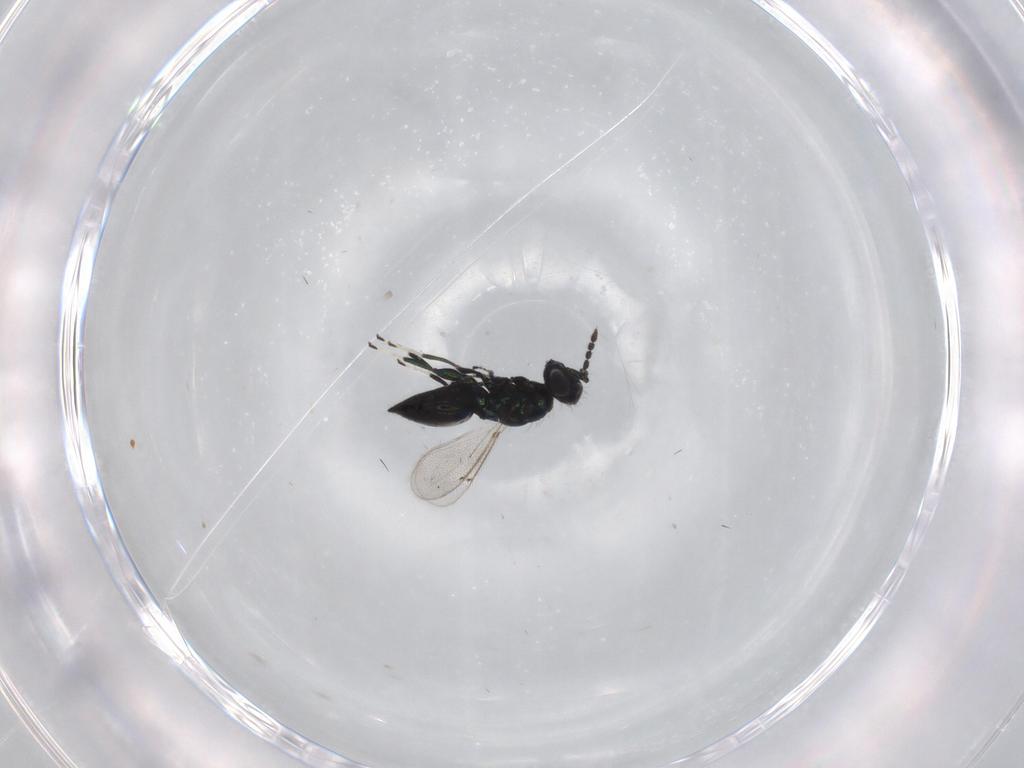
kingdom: Animalia
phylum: Arthropoda
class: Insecta
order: Hymenoptera
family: Eulophidae
